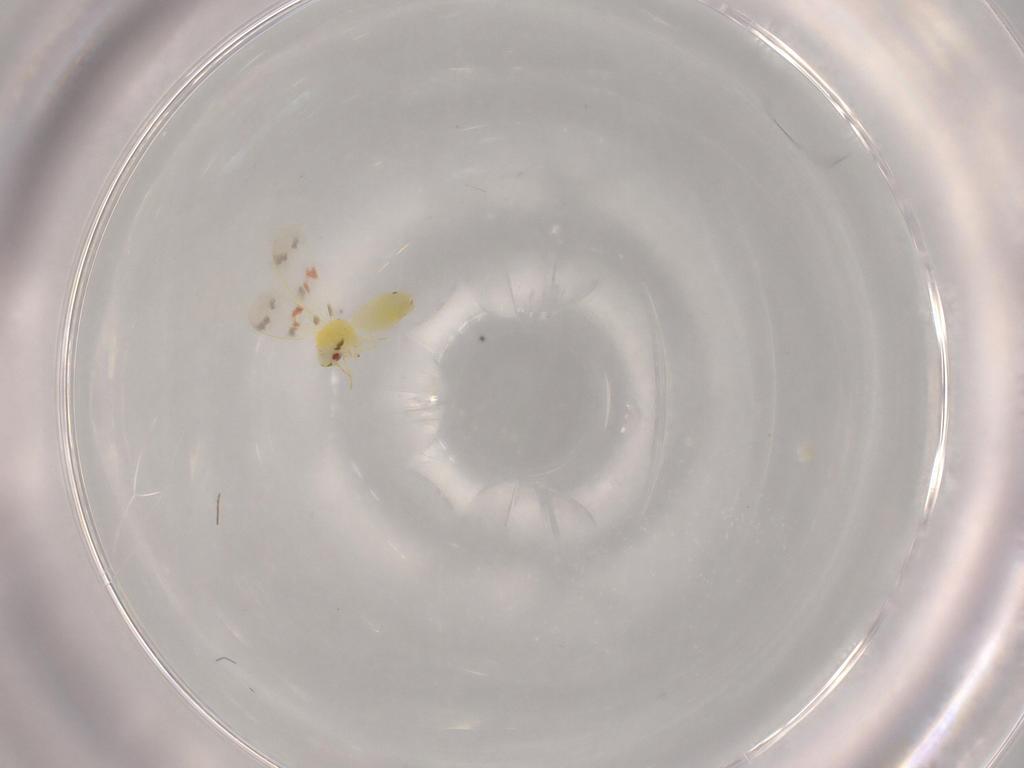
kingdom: Animalia
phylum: Arthropoda
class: Insecta
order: Hemiptera
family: Aleyrodidae
